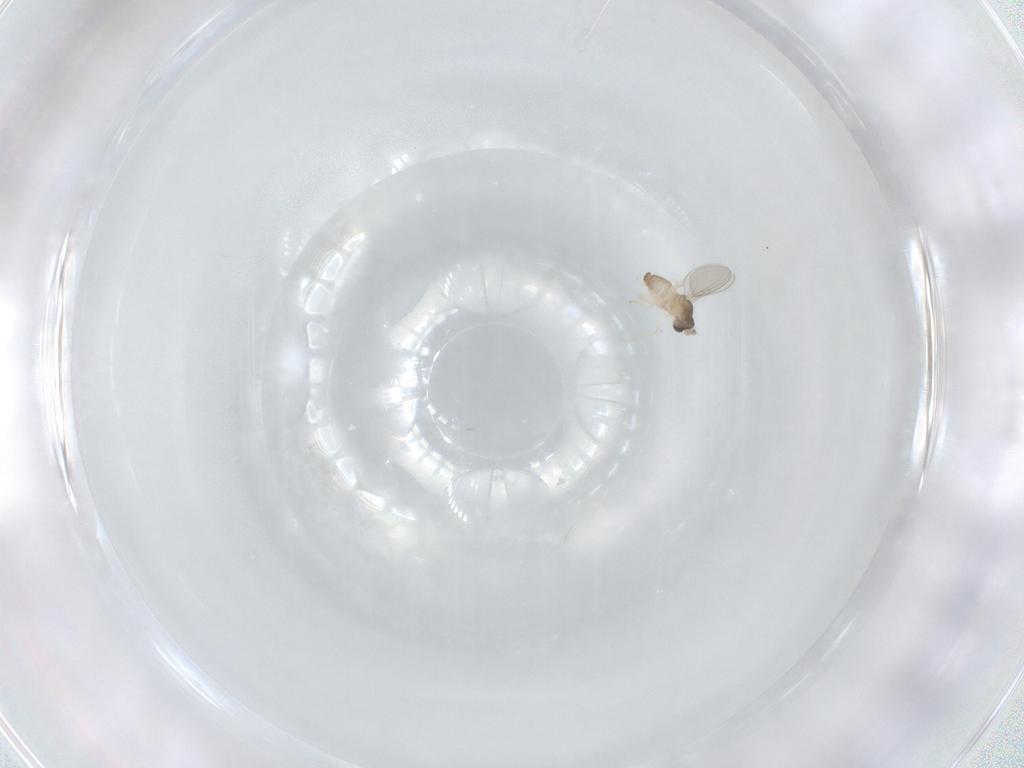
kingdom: Animalia
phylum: Arthropoda
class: Insecta
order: Diptera
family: Cecidomyiidae
